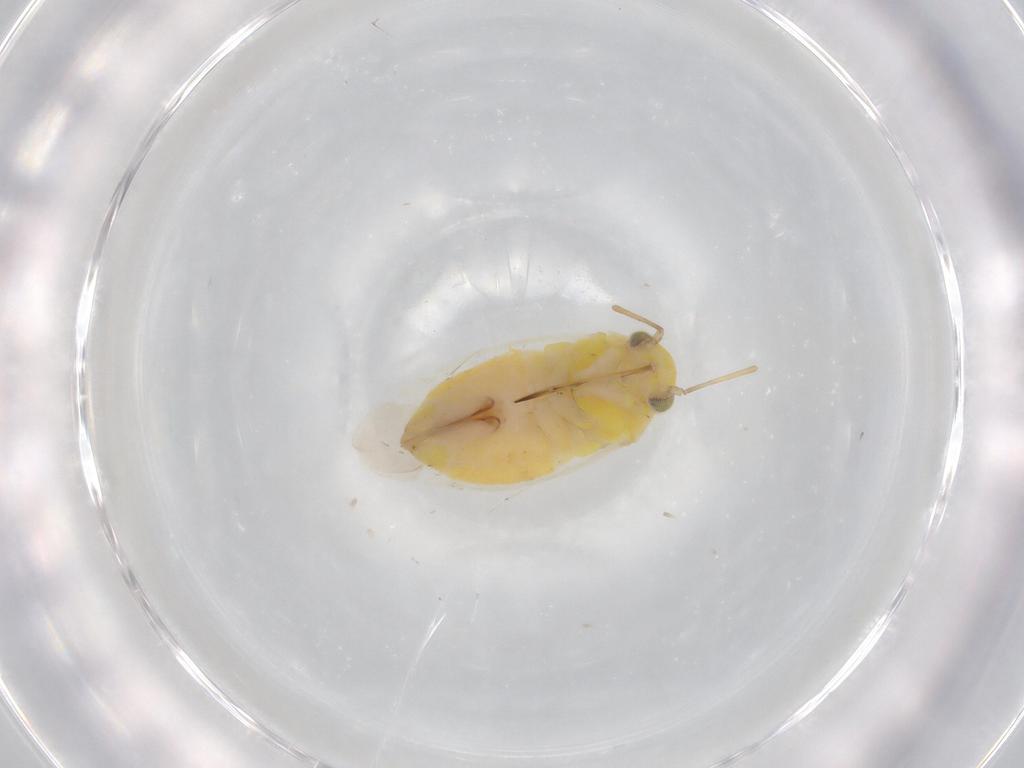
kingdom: Animalia
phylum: Arthropoda
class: Insecta
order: Hemiptera
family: Miridae
